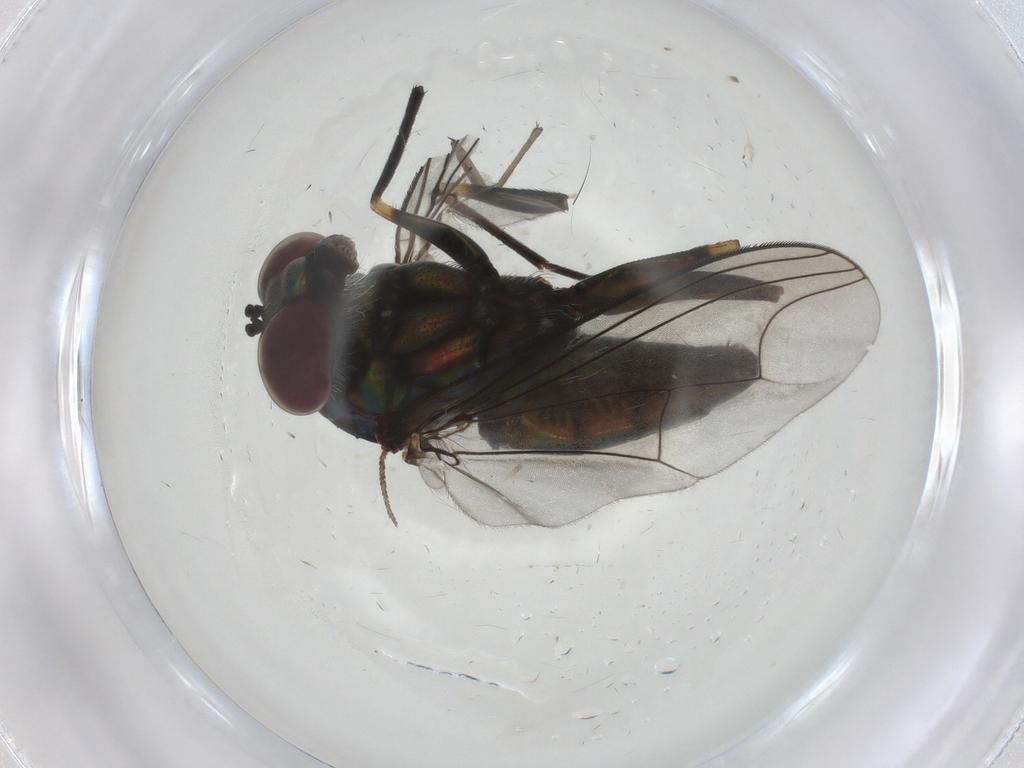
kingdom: Animalia
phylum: Arthropoda
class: Insecta
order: Diptera
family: Dolichopodidae
